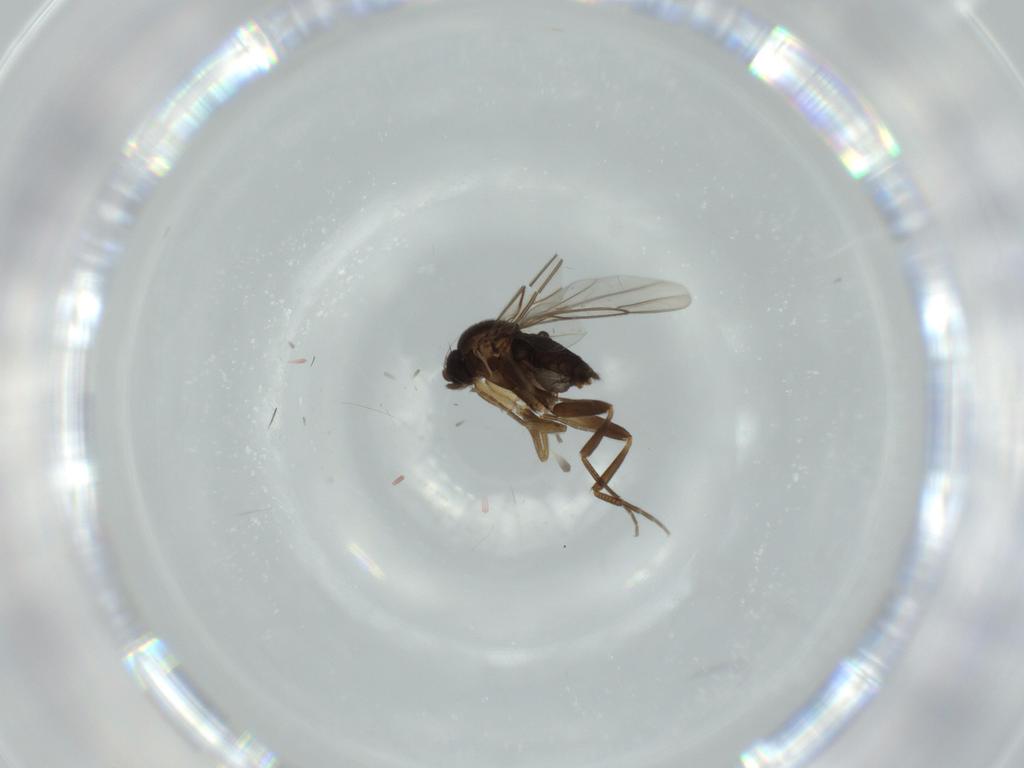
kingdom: Animalia
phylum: Arthropoda
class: Insecta
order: Diptera
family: Phoridae
